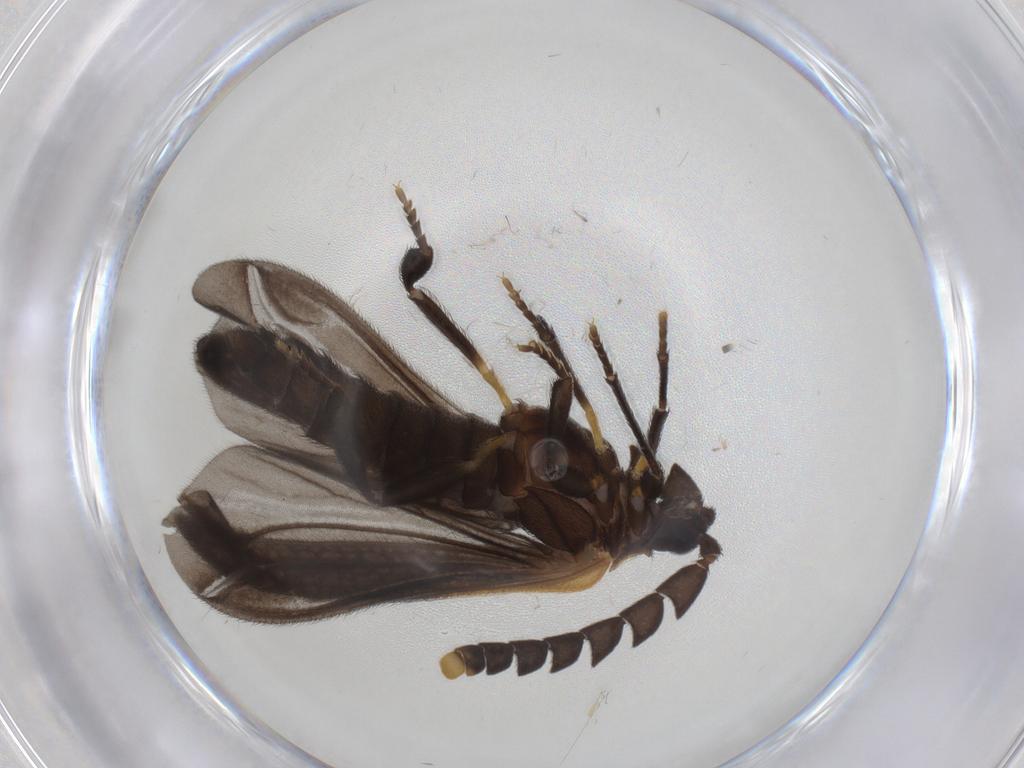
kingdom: Animalia
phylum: Arthropoda
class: Insecta
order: Coleoptera
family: Lycidae
